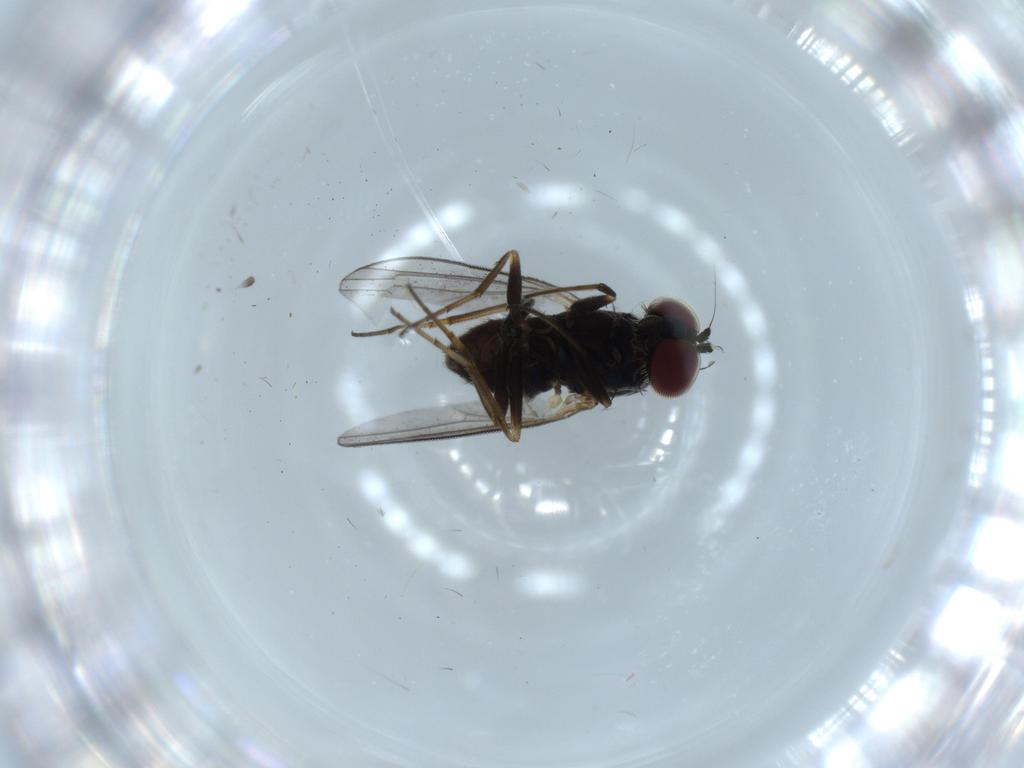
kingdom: Animalia
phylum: Arthropoda
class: Insecta
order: Diptera
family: Dolichopodidae
